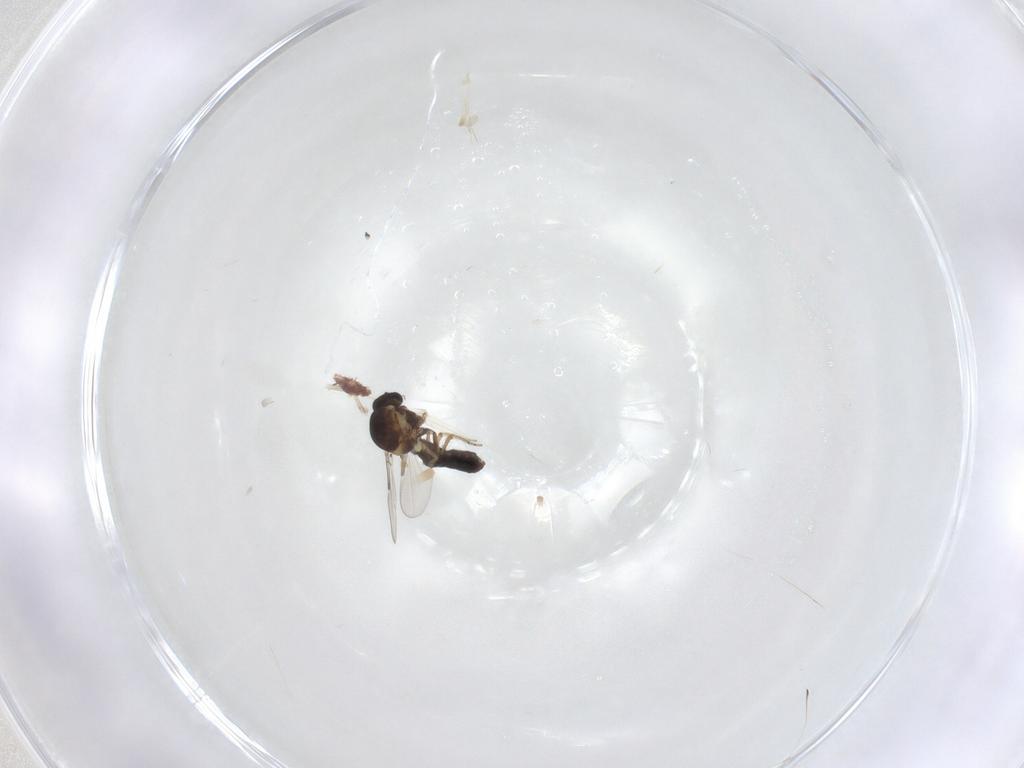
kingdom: Animalia
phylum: Arthropoda
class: Insecta
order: Diptera
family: Ceratopogonidae
